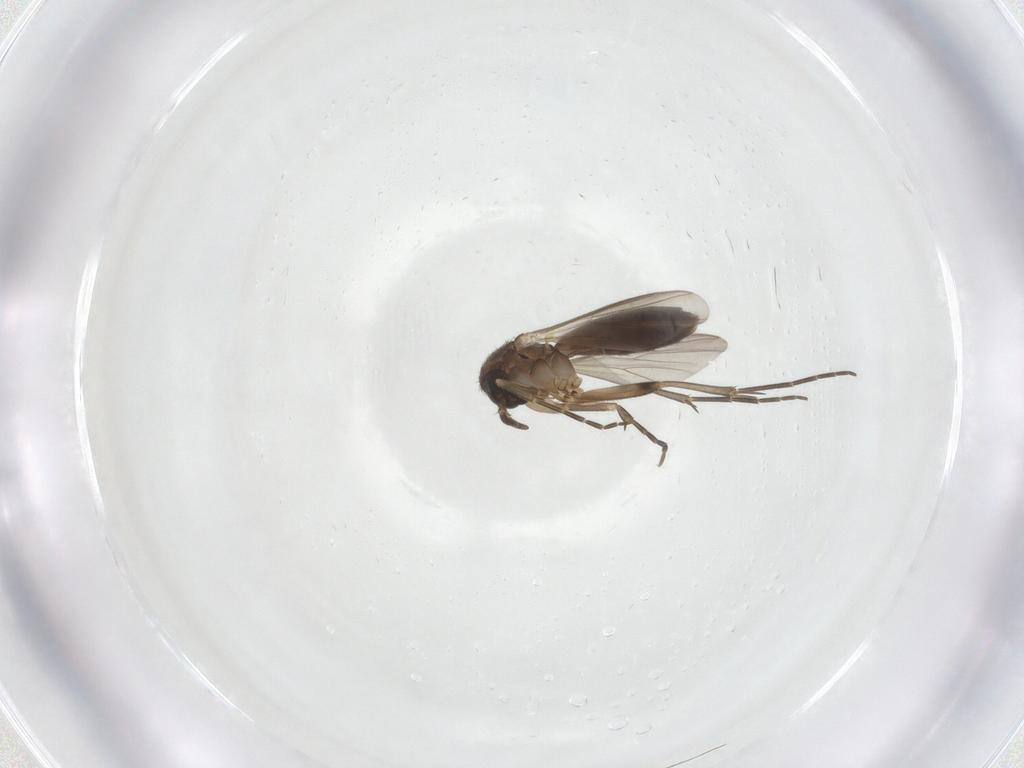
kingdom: Animalia
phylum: Arthropoda
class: Insecta
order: Diptera
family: Mycetophilidae
